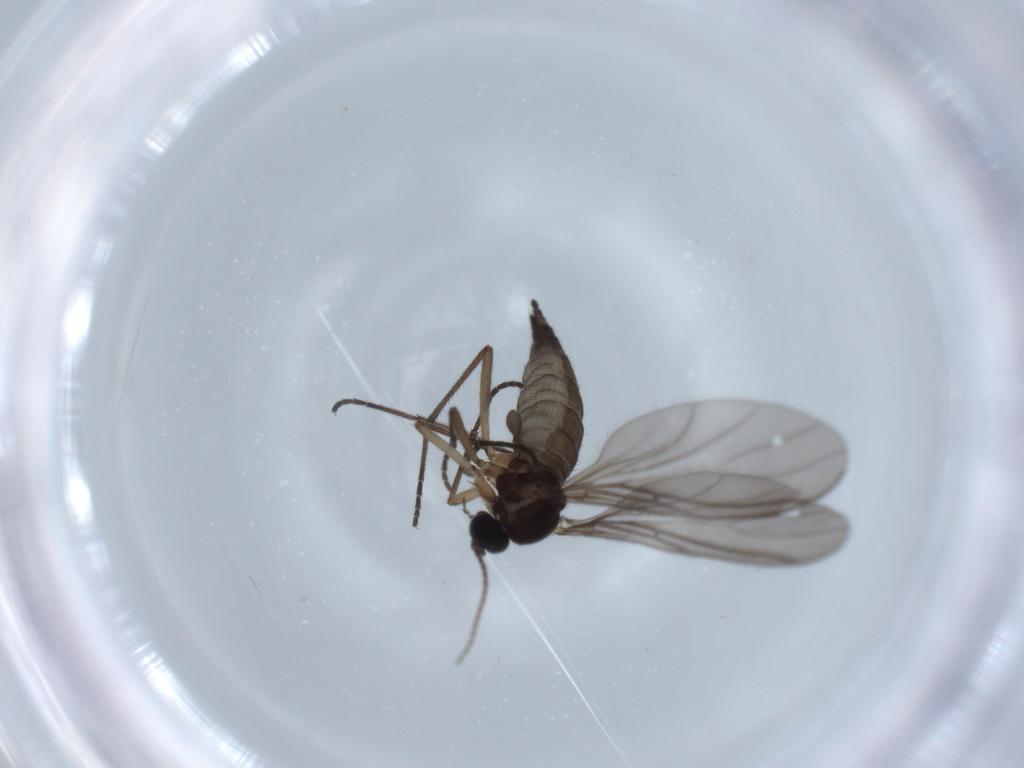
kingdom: Animalia
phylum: Arthropoda
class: Insecta
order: Diptera
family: Sciaridae
